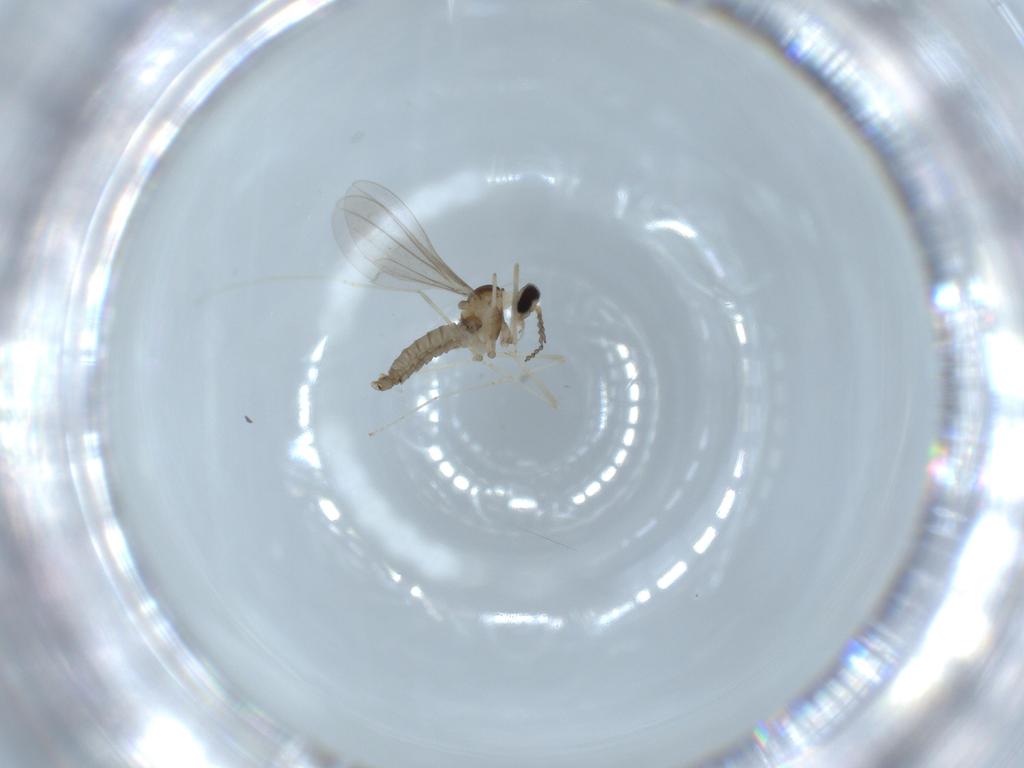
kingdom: Animalia
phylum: Arthropoda
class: Insecta
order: Diptera
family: Cecidomyiidae
